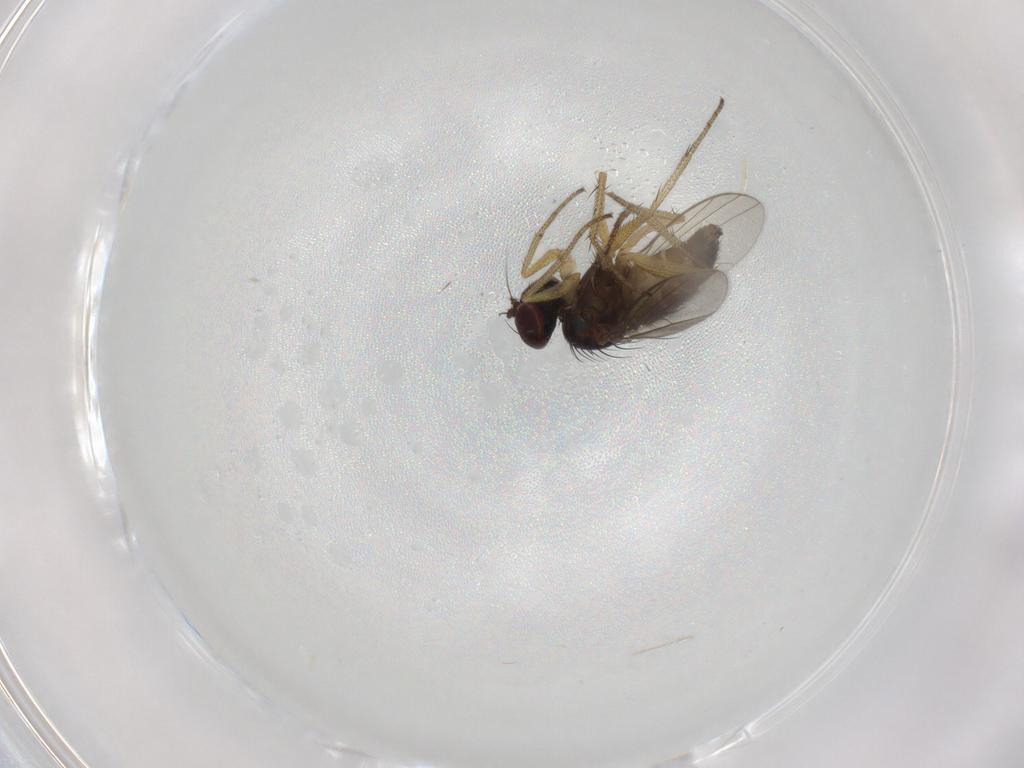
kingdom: Animalia
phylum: Arthropoda
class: Insecta
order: Diptera
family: Dolichopodidae
